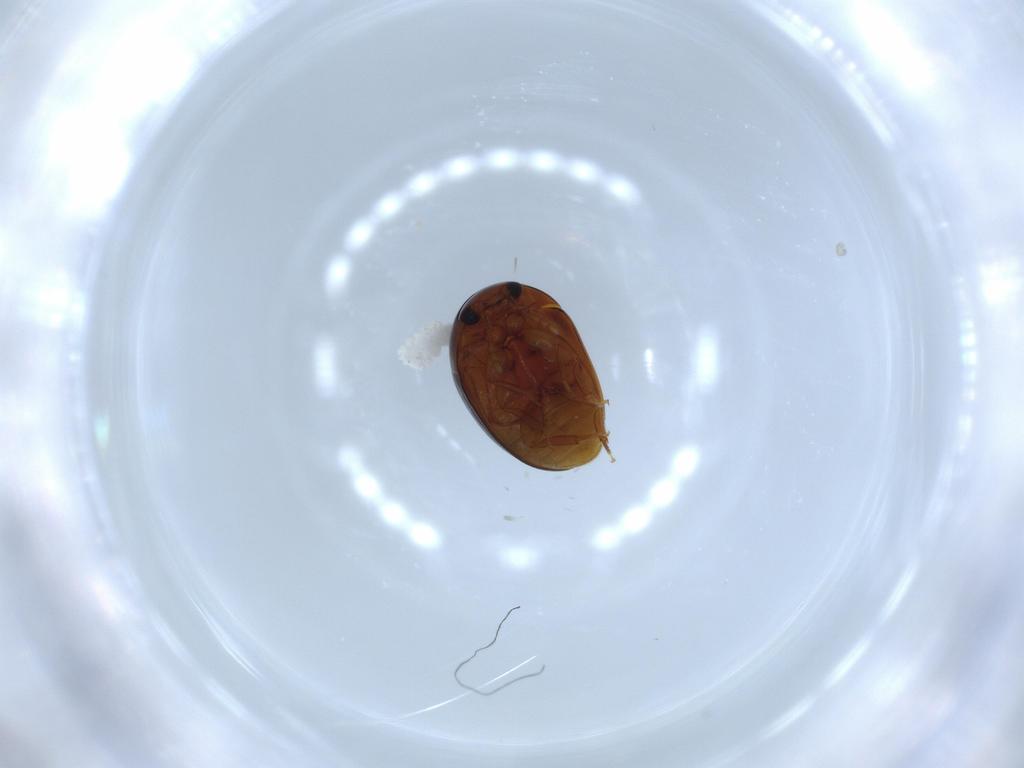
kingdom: Animalia
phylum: Arthropoda
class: Insecta
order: Coleoptera
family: Phalacridae
